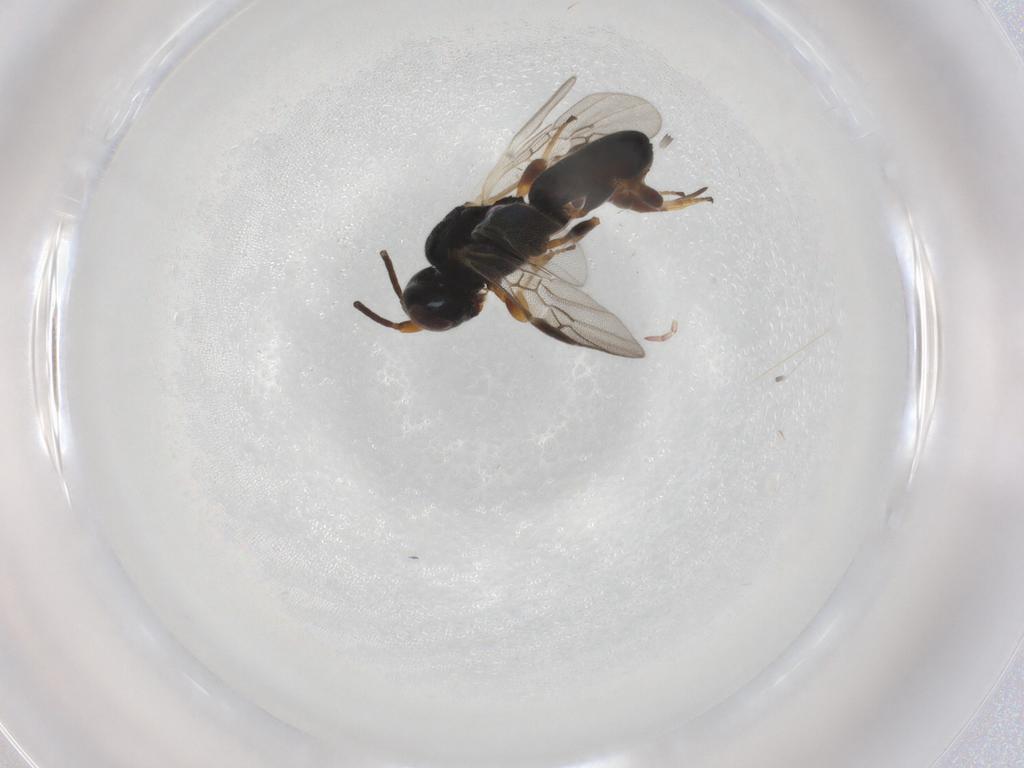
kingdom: Animalia
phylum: Arthropoda
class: Insecta
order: Hymenoptera
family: Braconidae
